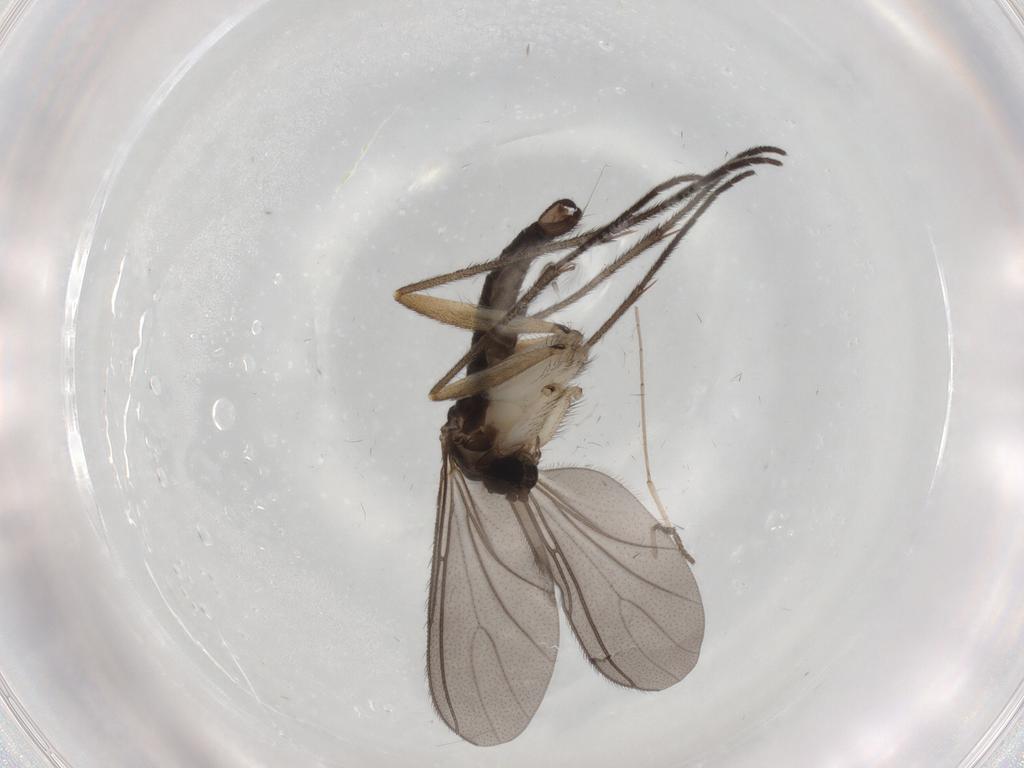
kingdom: Animalia
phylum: Arthropoda
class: Insecta
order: Diptera
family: Sciaridae
